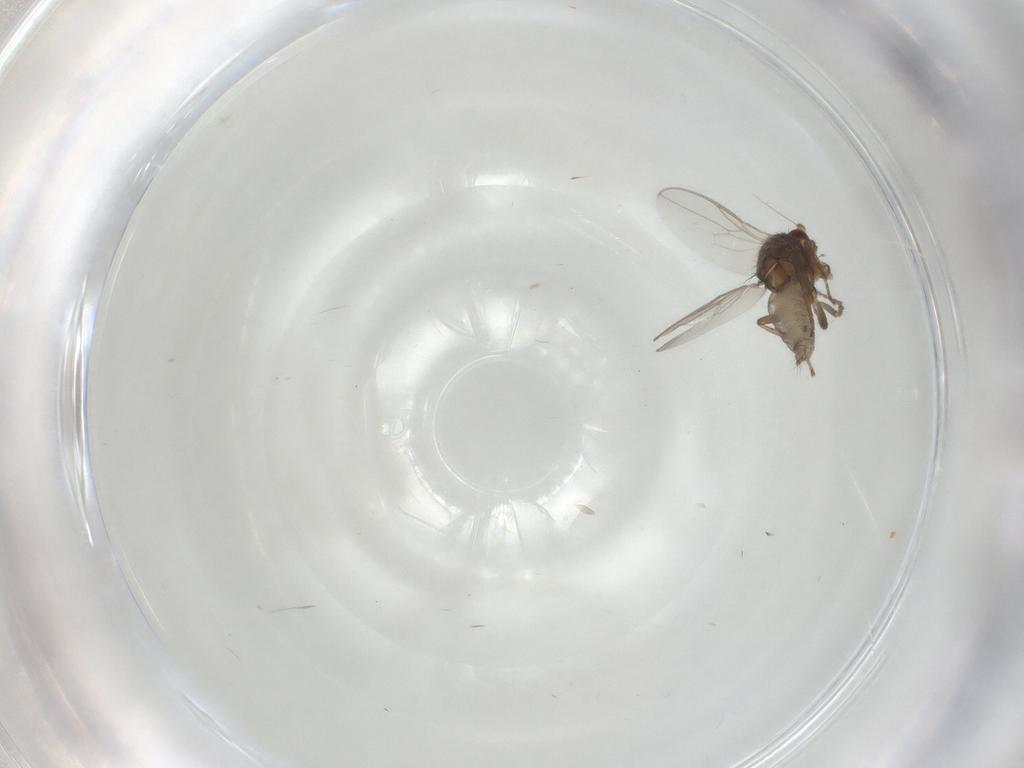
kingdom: Animalia
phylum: Arthropoda
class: Insecta
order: Diptera
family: Sphaeroceridae
